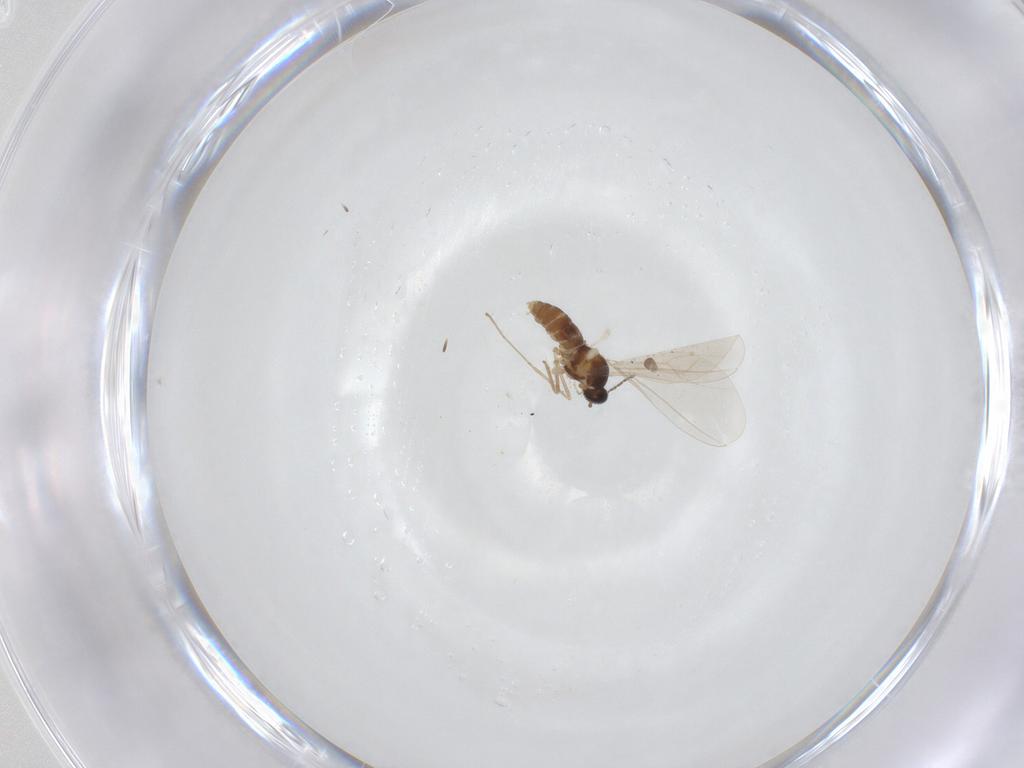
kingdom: Animalia
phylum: Arthropoda
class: Insecta
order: Diptera
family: Cecidomyiidae
